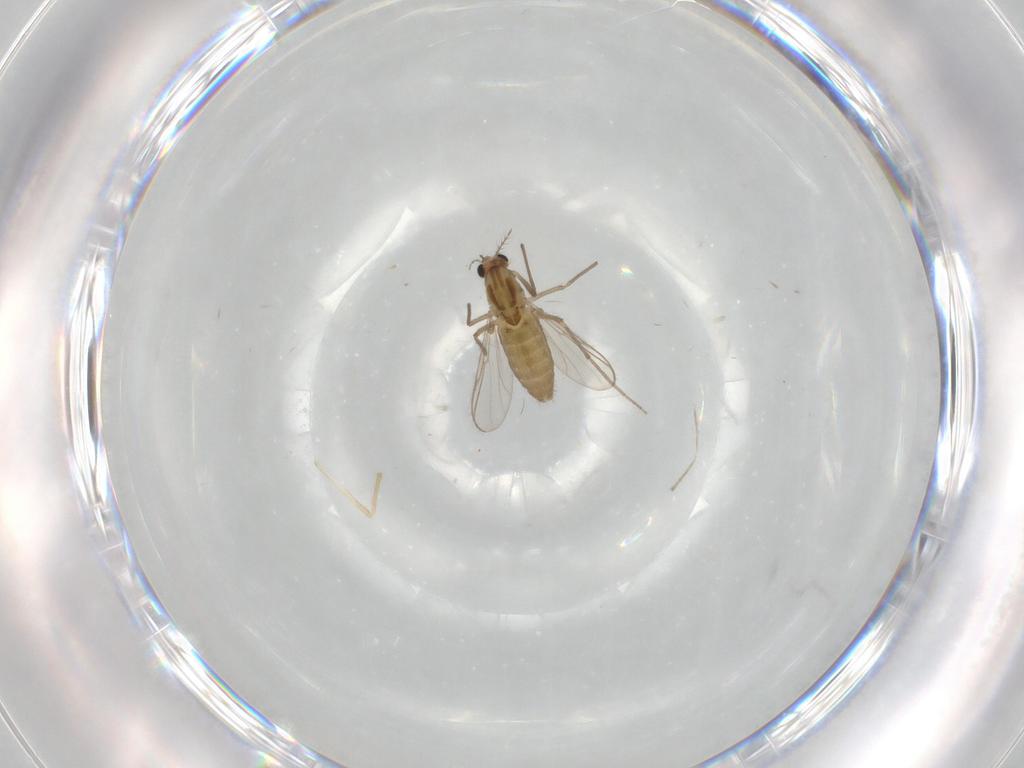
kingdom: Animalia
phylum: Arthropoda
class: Insecta
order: Diptera
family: Chironomidae
